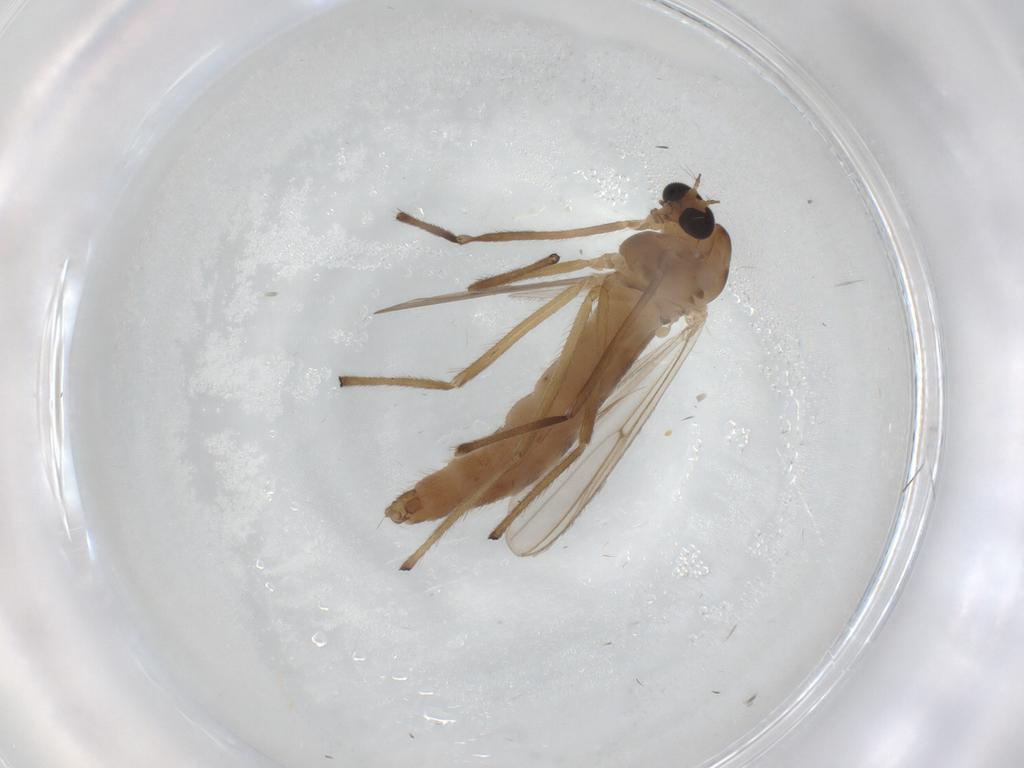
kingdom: Animalia
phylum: Arthropoda
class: Insecta
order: Diptera
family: Chironomidae
